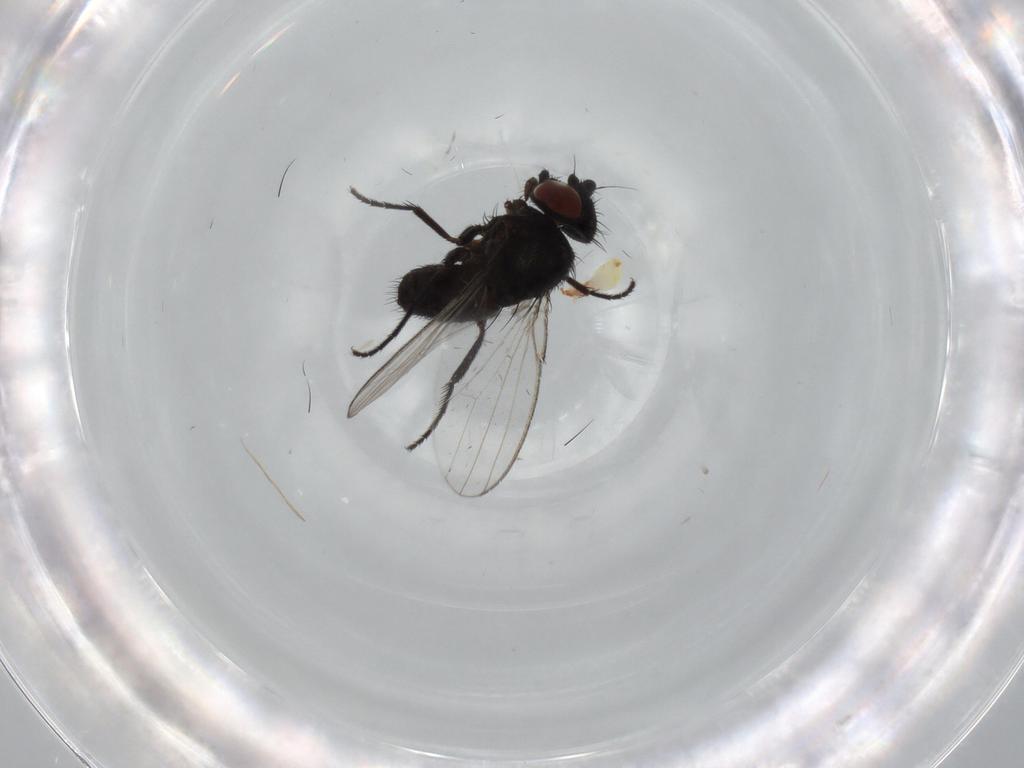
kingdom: Animalia
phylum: Arthropoda
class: Insecta
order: Diptera
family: Milichiidae
